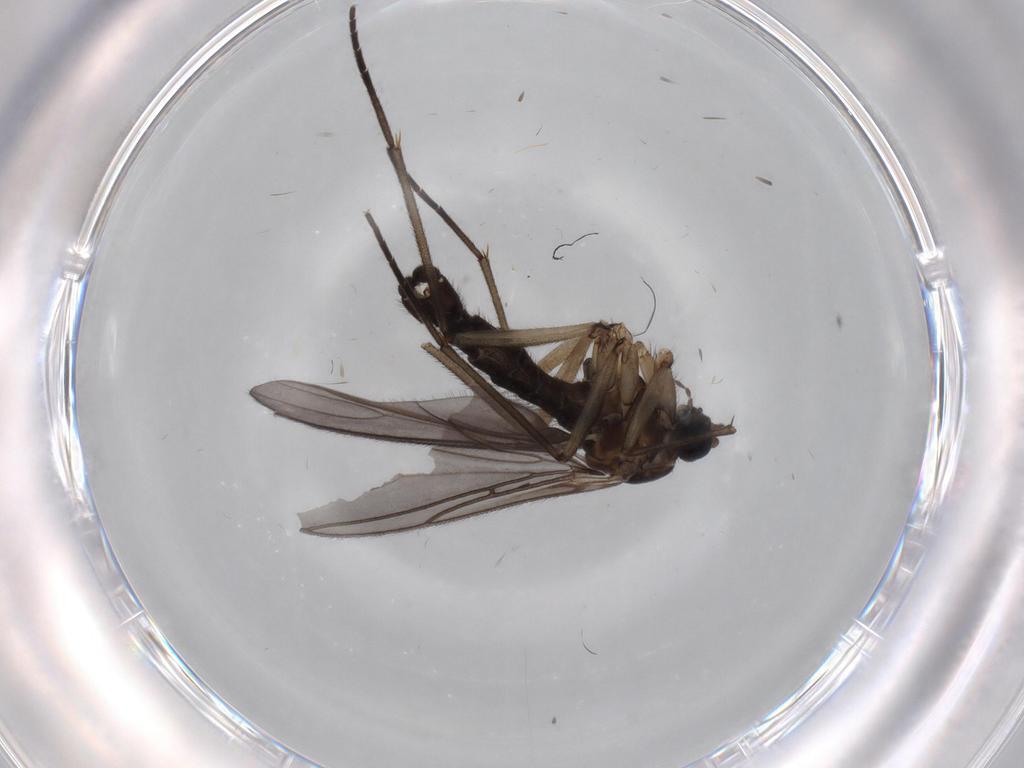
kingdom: Animalia
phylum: Arthropoda
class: Insecta
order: Diptera
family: Sciaridae
